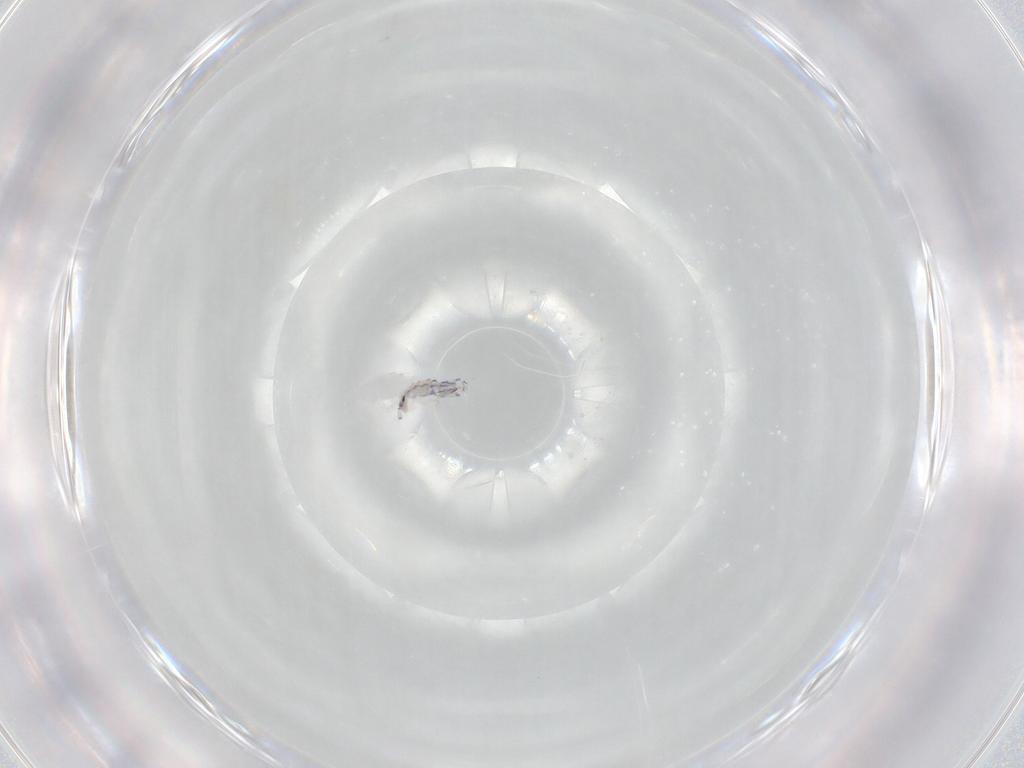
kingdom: Animalia
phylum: Arthropoda
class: Collembola
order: Entomobryomorpha
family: Entomobryidae
